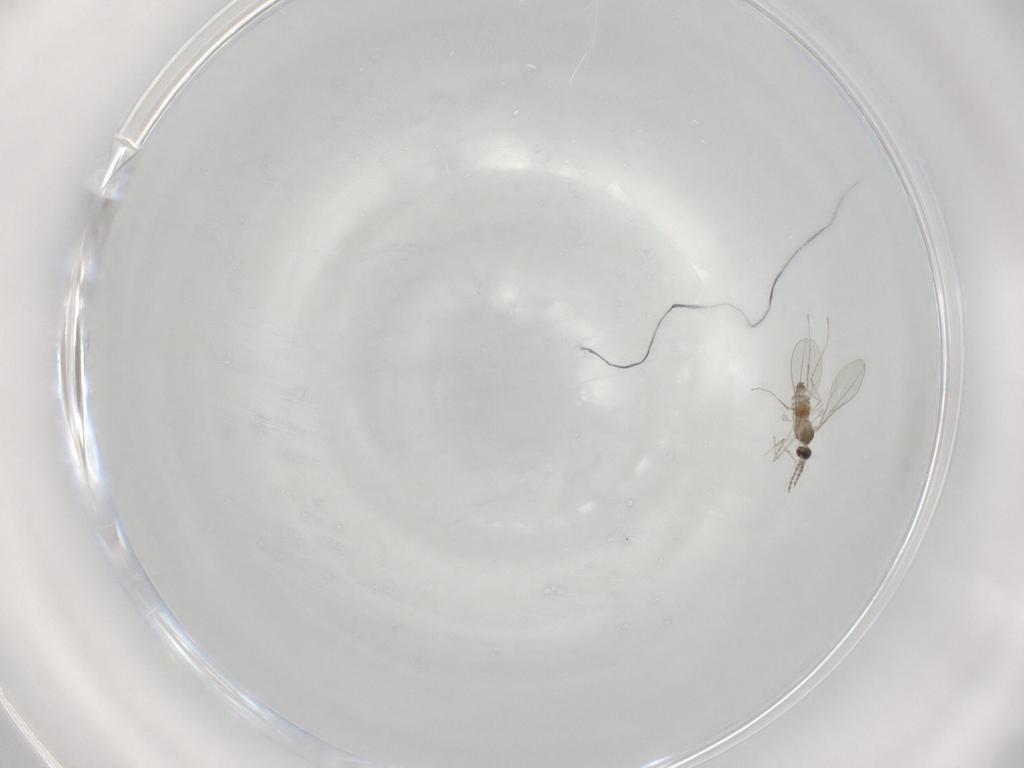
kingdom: Animalia
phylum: Arthropoda
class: Insecta
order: Diptera
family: Cecidomyiidae
